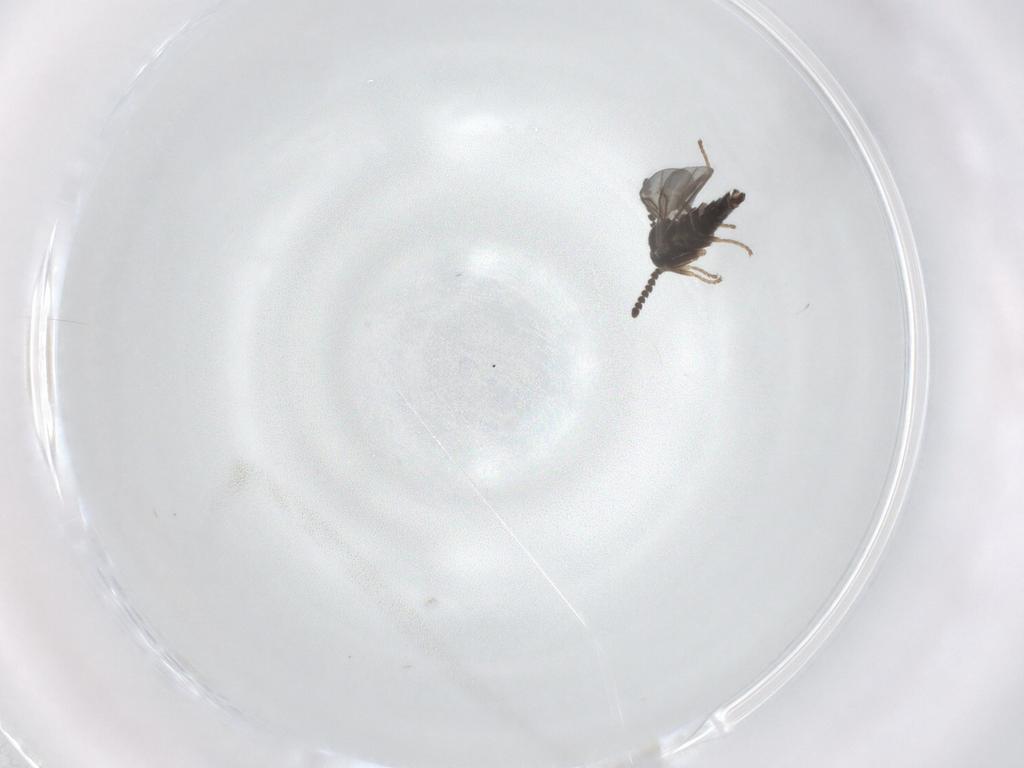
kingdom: Animalia
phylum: Arthropoda
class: Insecta
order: Diptera
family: Scatopsidae
